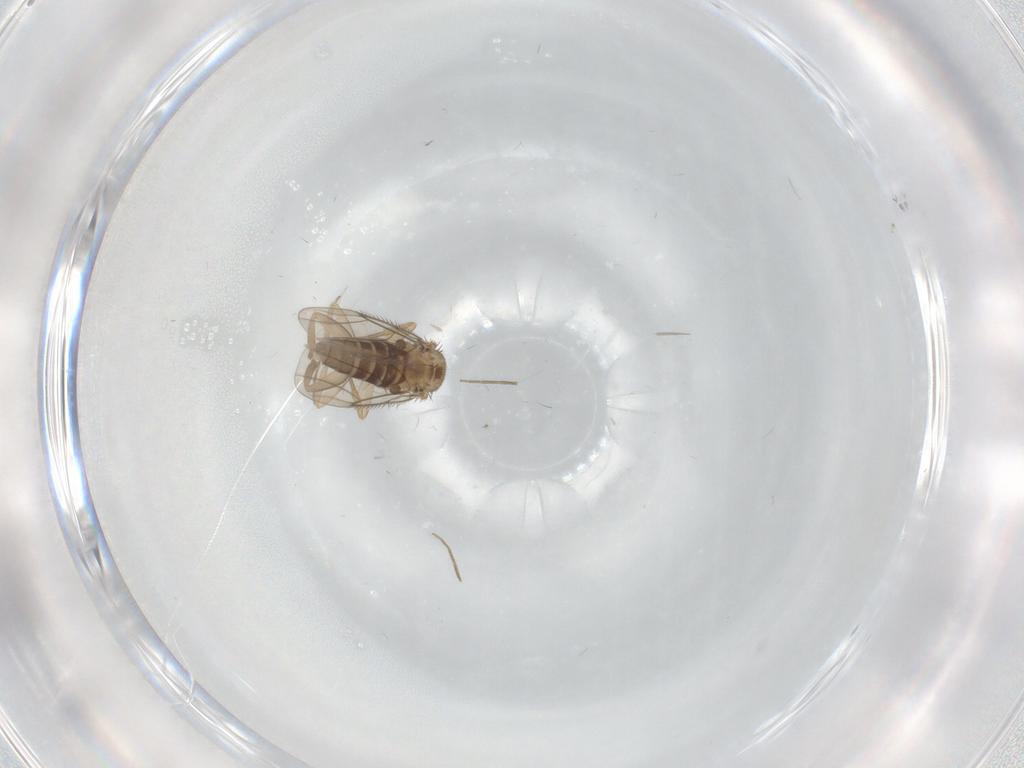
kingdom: Animalia
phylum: Arthropoda
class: Insecta
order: Diptera
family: Phoridae
